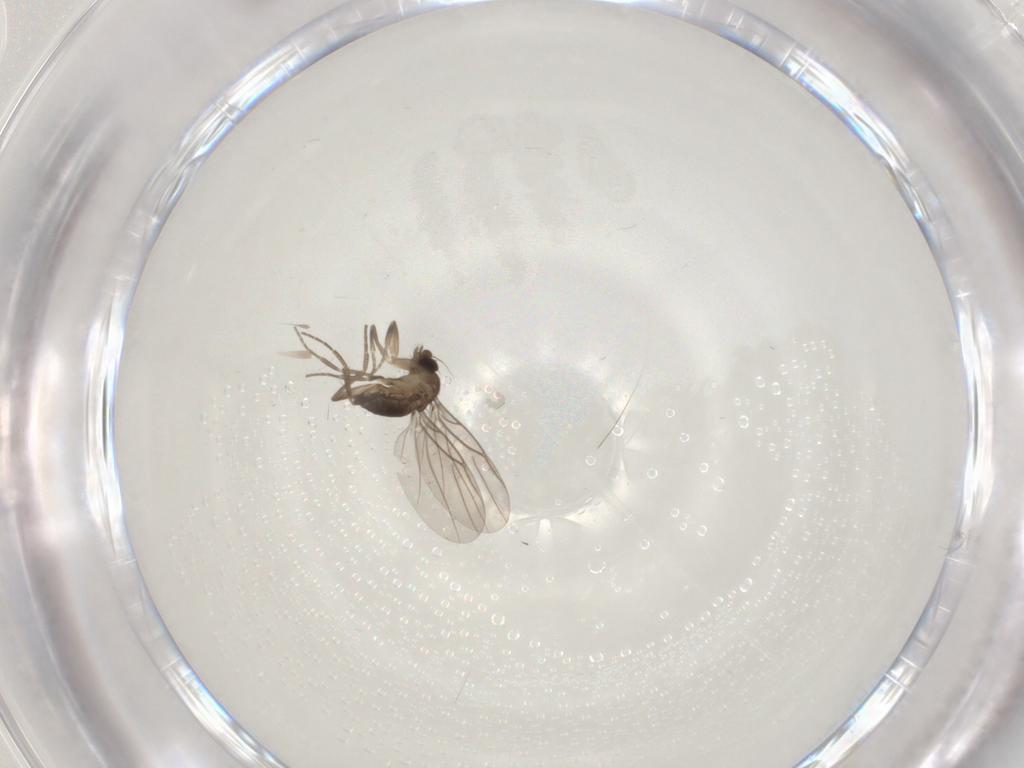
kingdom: Animalia
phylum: Arthropoda
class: Insecta
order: Diptera
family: Phoridae
